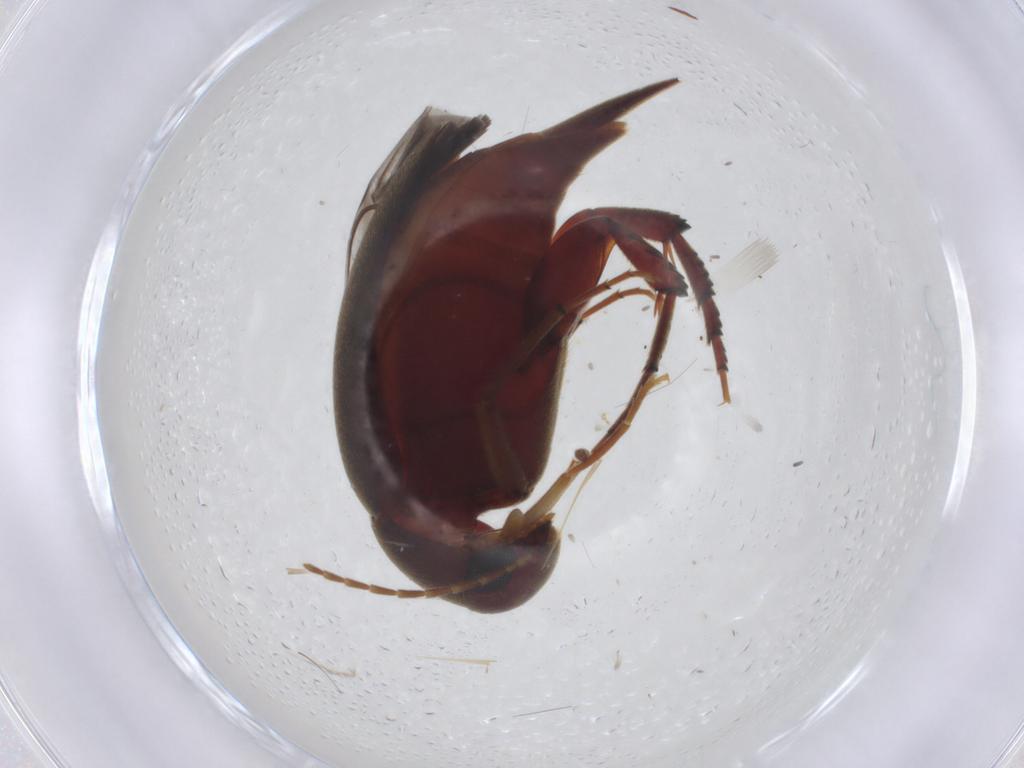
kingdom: Animalia
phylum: Arthropoda
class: Insecta
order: Coleoptera
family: Mordellidae
